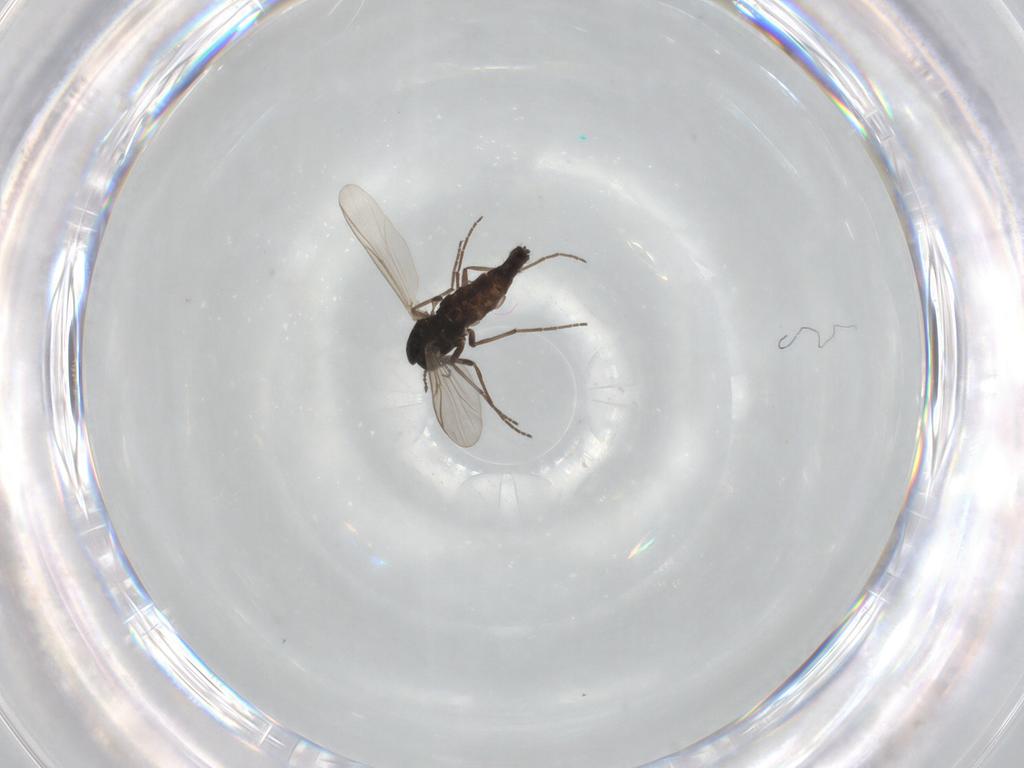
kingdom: Animalia
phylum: Arthropoda
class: Insecta
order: Diptera
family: Chironomidae
